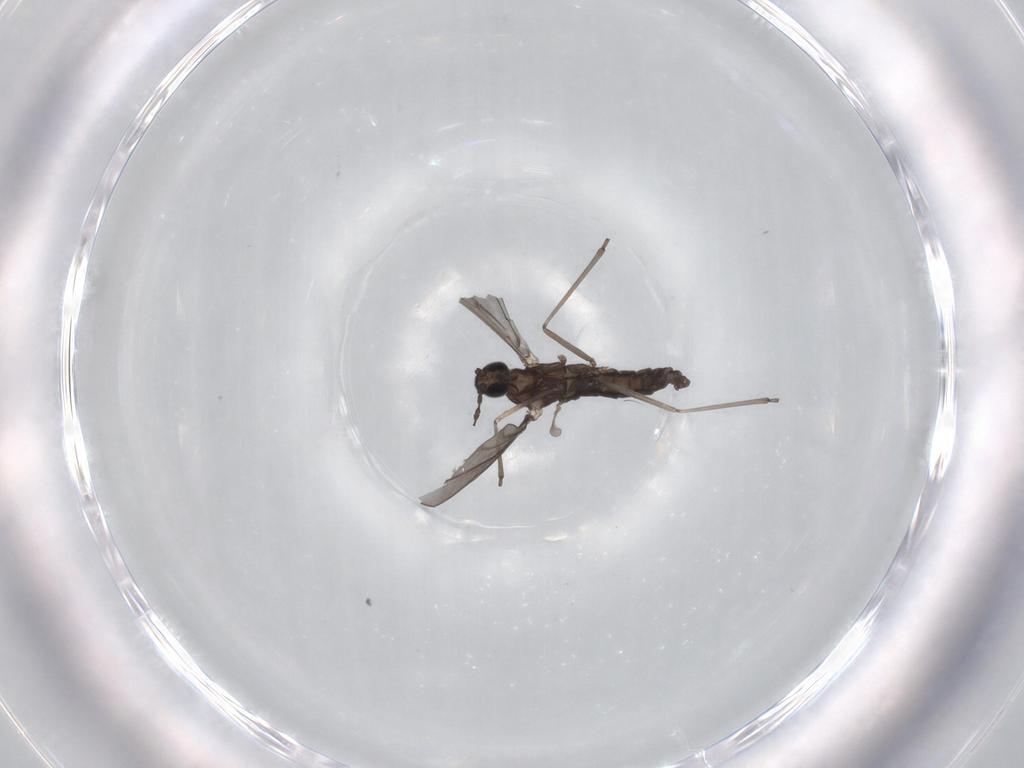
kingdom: Animalia
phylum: Arthropoda
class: Insecta
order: Diptera
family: Cecidomyiidae
